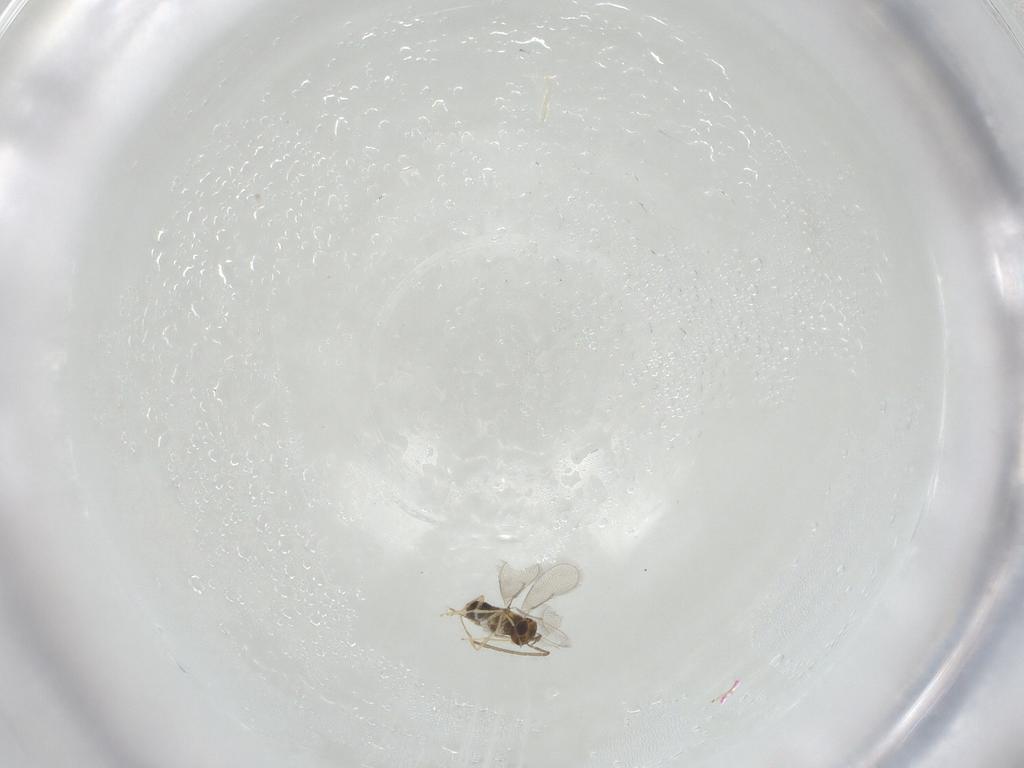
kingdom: Animalia
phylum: Arthropoda
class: Insecta
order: Hymenoptera
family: Aphelinidae
